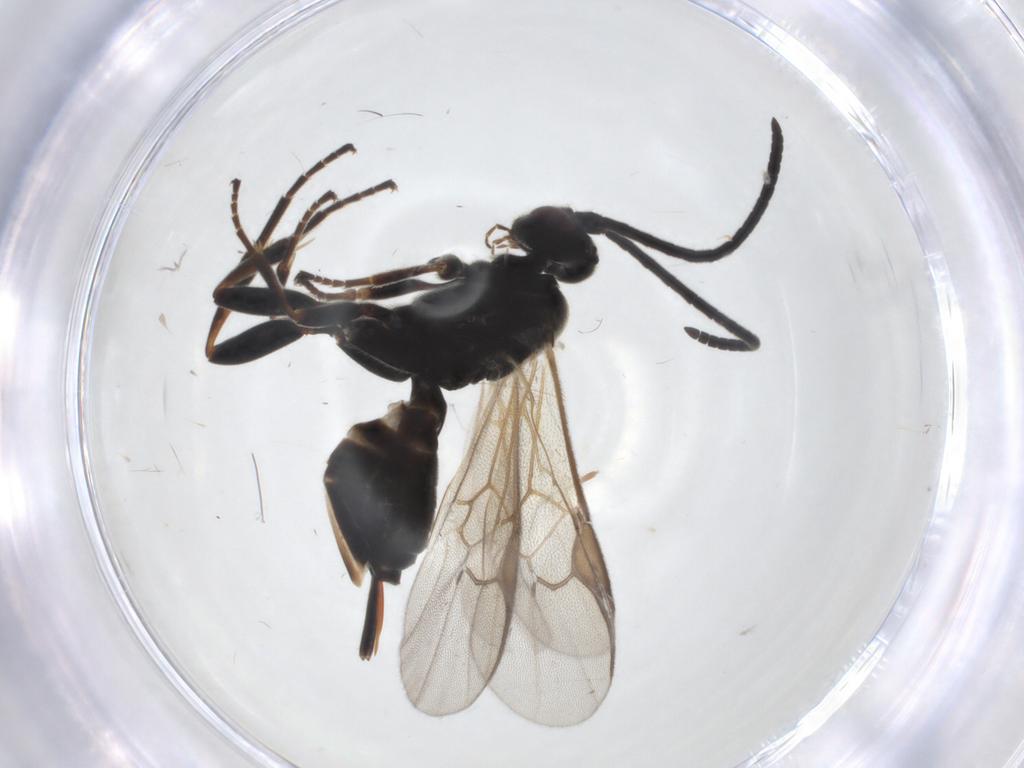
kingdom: Animalia
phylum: Arthropoda
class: Insecta
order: Hymenoptera
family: Braconidae
